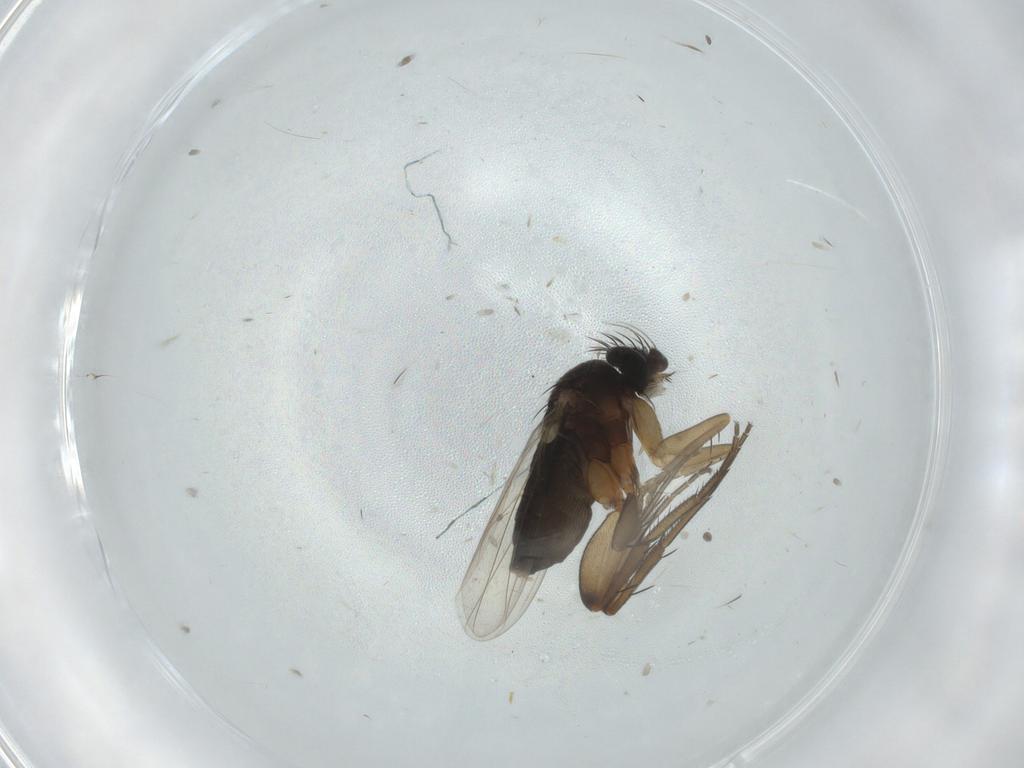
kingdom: Animalia
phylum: Arthropoda
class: Insecta
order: Diptera
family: Phoridae
